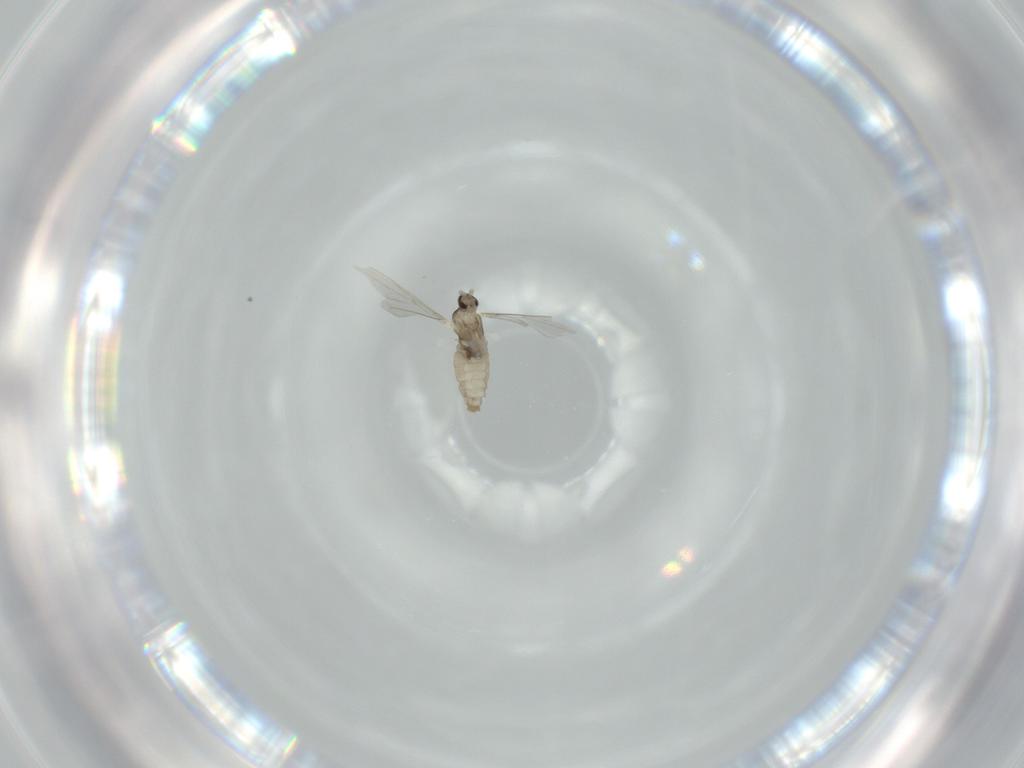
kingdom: Animalia
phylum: Arthropoda
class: Insecta
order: Diptera
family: Cecidomyiidae
